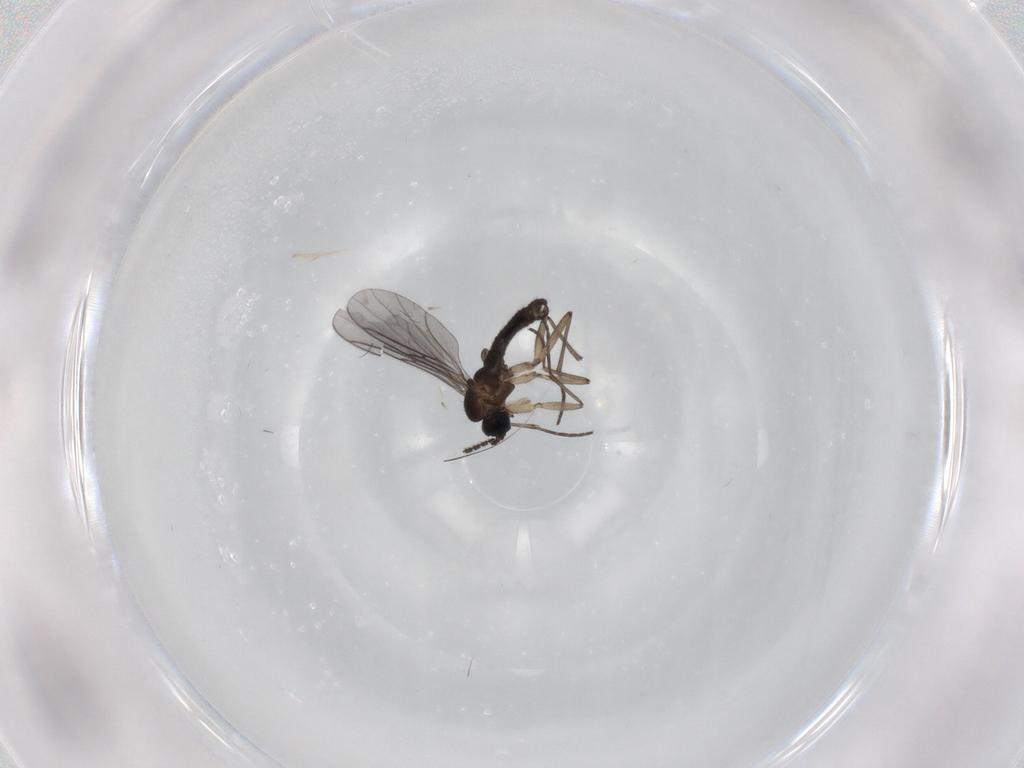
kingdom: Animalia
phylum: Arthropoda
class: Insecta
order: Diptera
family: Sciaridae
